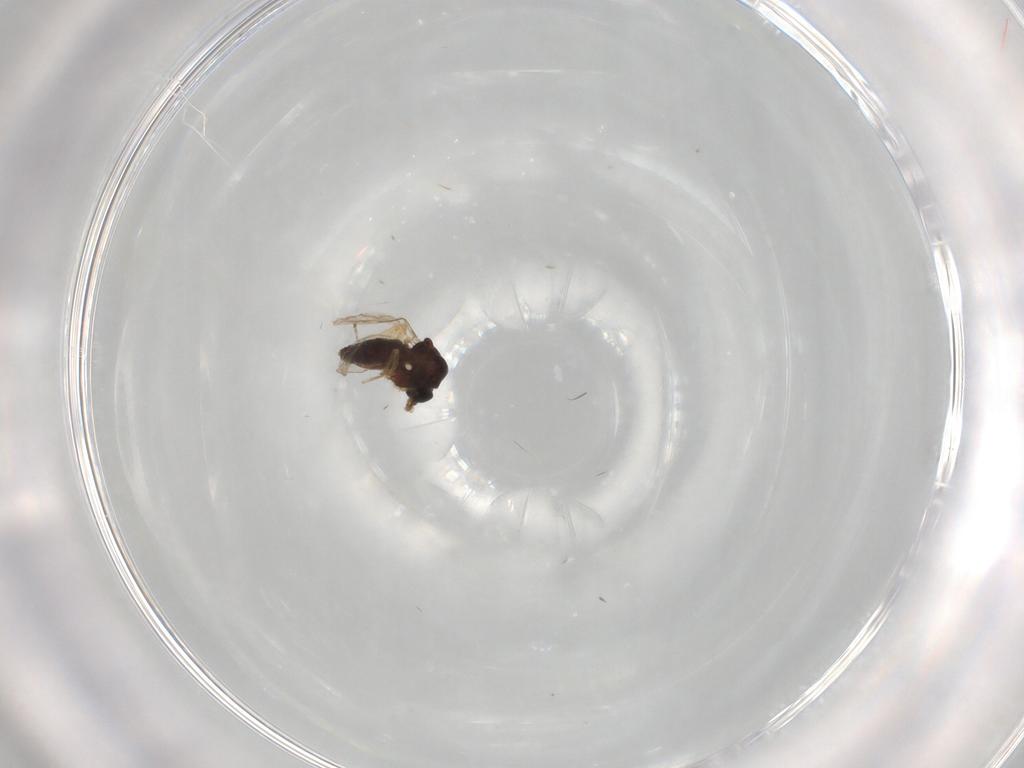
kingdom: Animalia
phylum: Arthropoda
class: Insecta
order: Diptera
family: Ceratopogonidae
